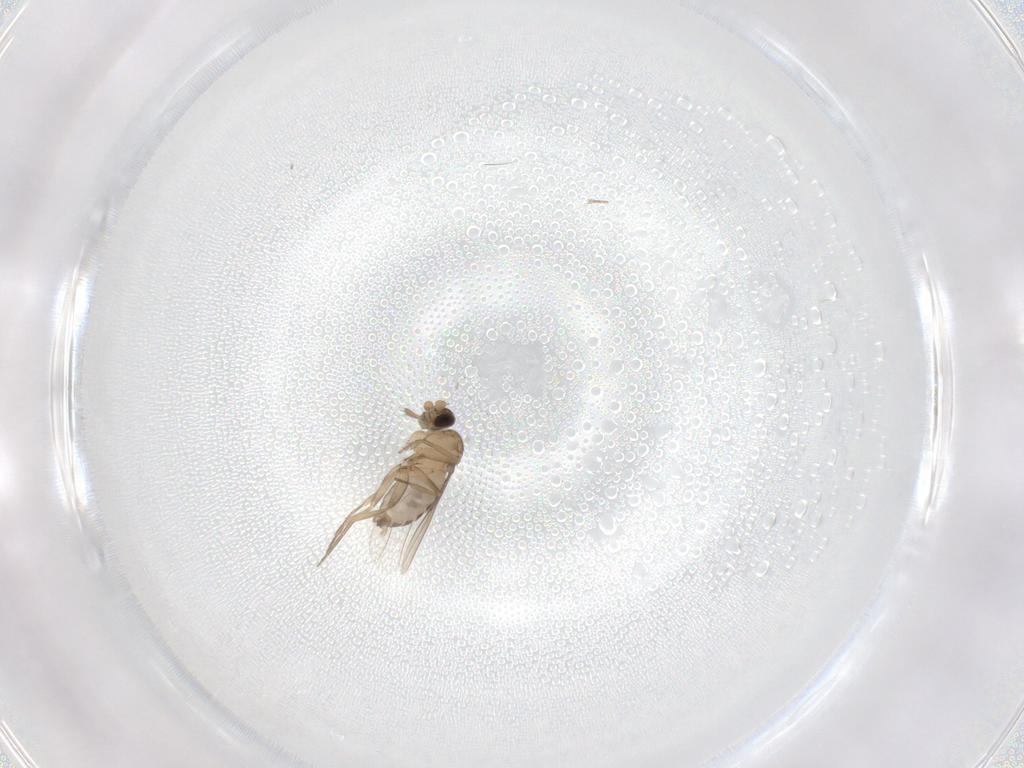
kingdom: Animalia
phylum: Arthropoda
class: Insecta
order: Diptera
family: Phoridae
